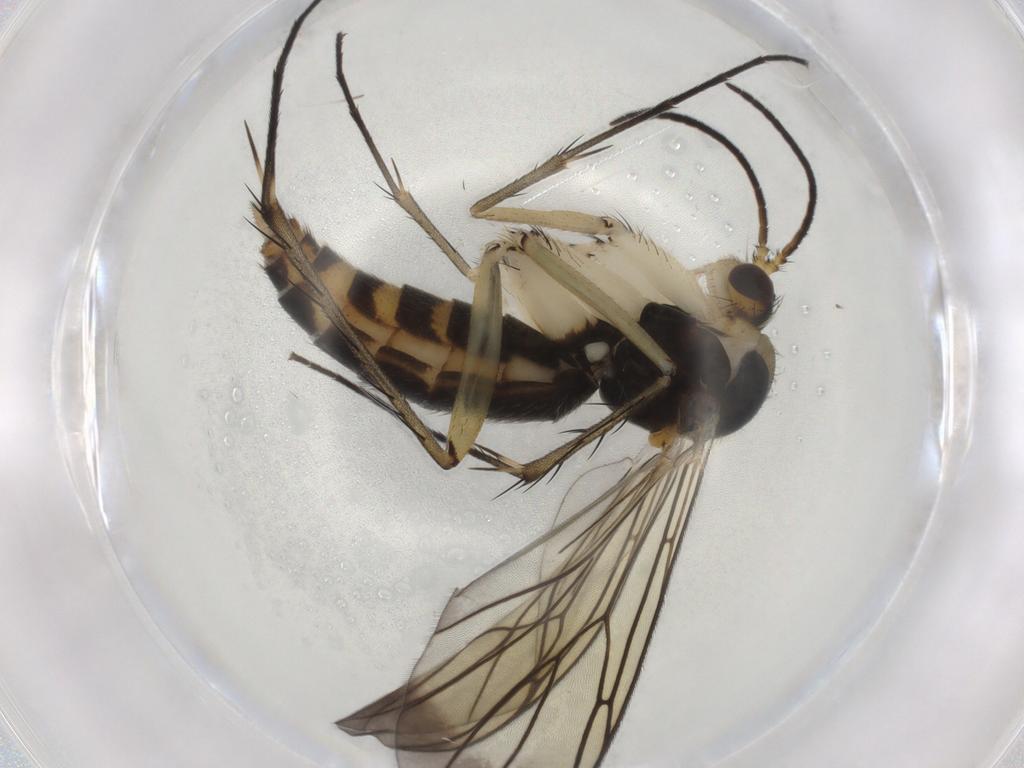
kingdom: Animalia
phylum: Arthropoda
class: Insecta
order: Diptera
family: Mycetophilidae
